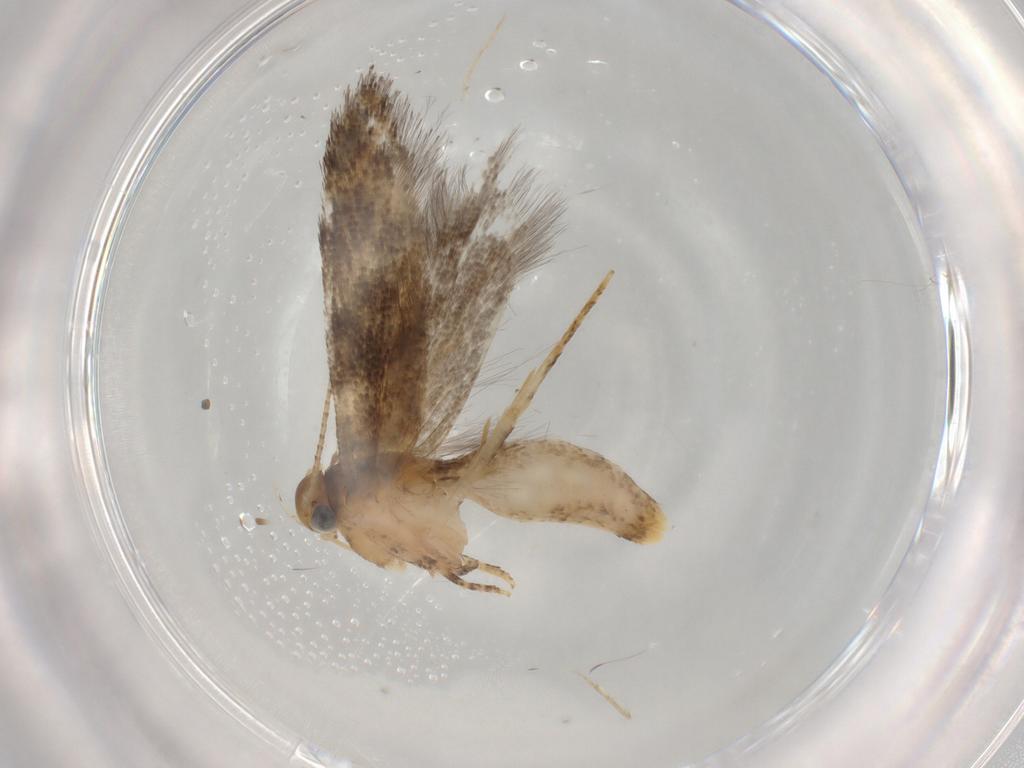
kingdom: Animalia
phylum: Arthropoda
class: Insecta
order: Lepidoptera
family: Gelechiidae
